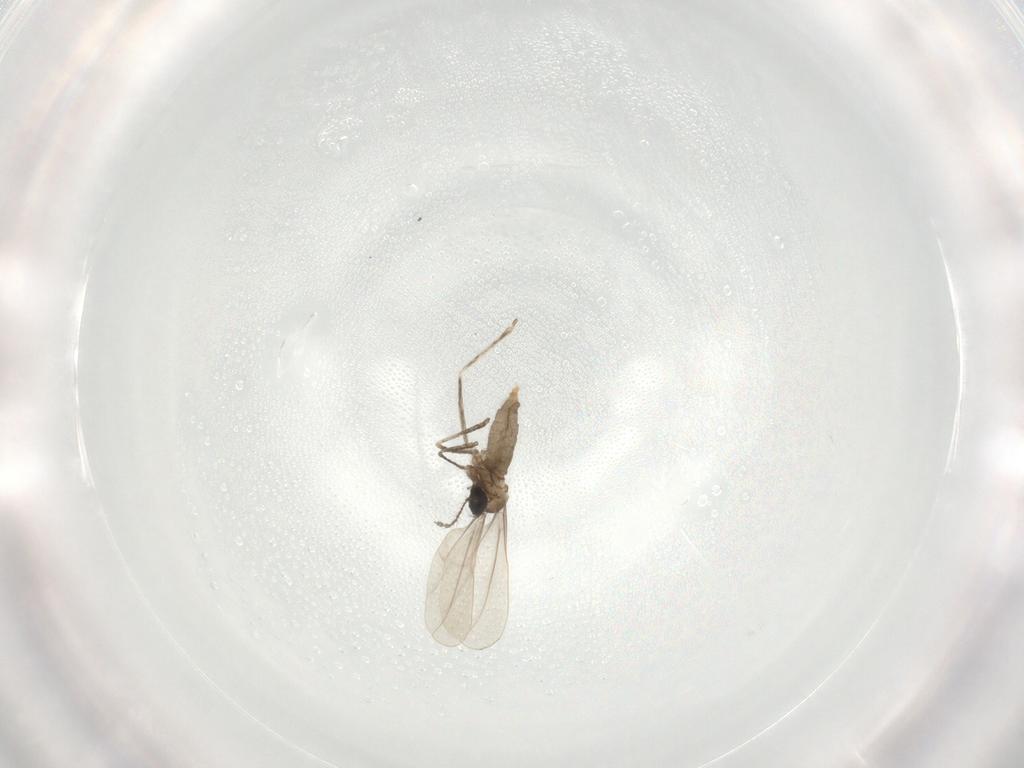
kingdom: Animalia
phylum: Arthropoda
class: Insecta
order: Diptera
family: Cecidomyiidae
